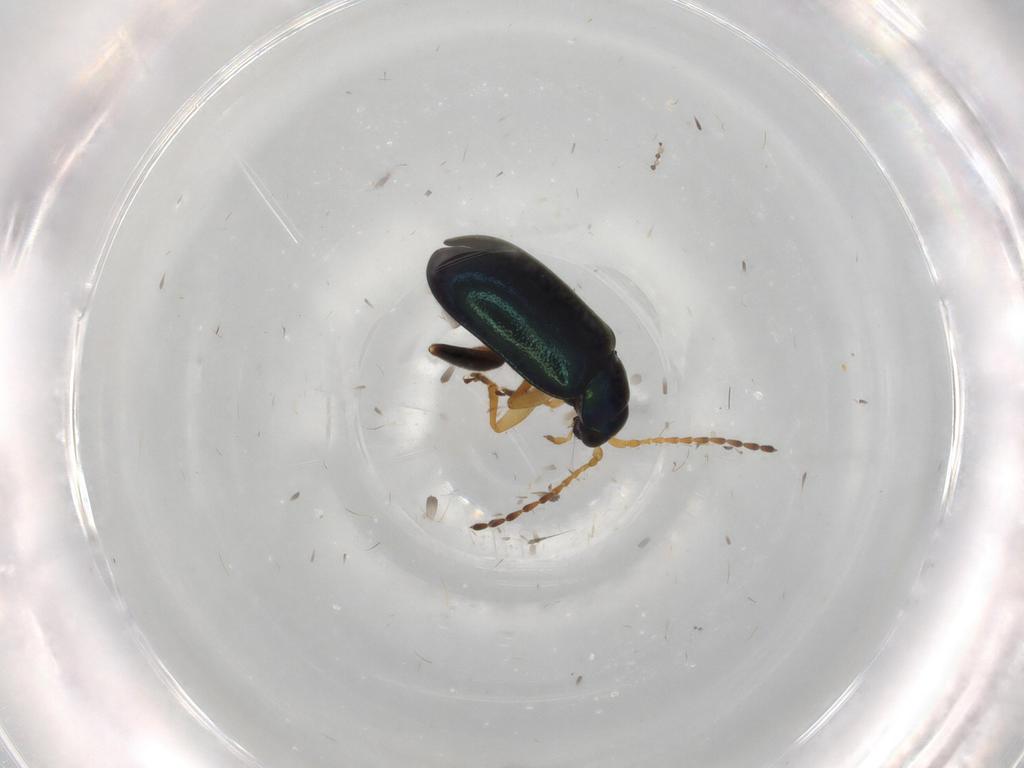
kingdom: Animalia
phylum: Arthropoda
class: Insecta
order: Coleoptera
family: Chrysomelidae
